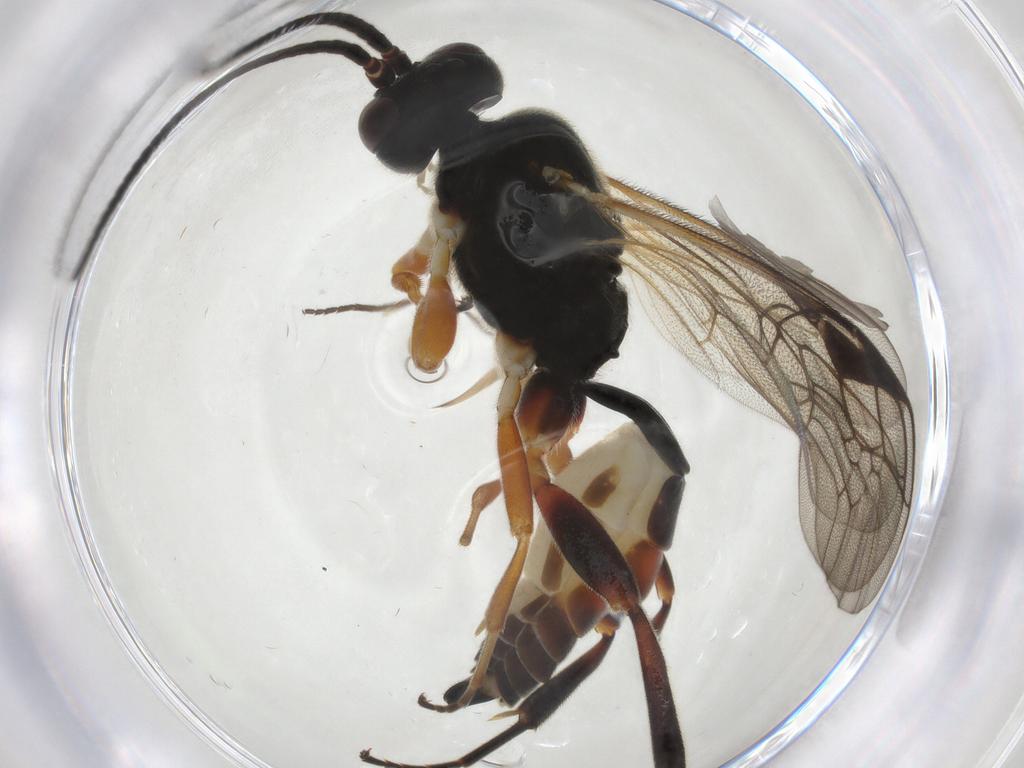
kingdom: Animalia
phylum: Arthropoda
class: Insecta
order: Hymenoptera
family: Ichneumonidae
